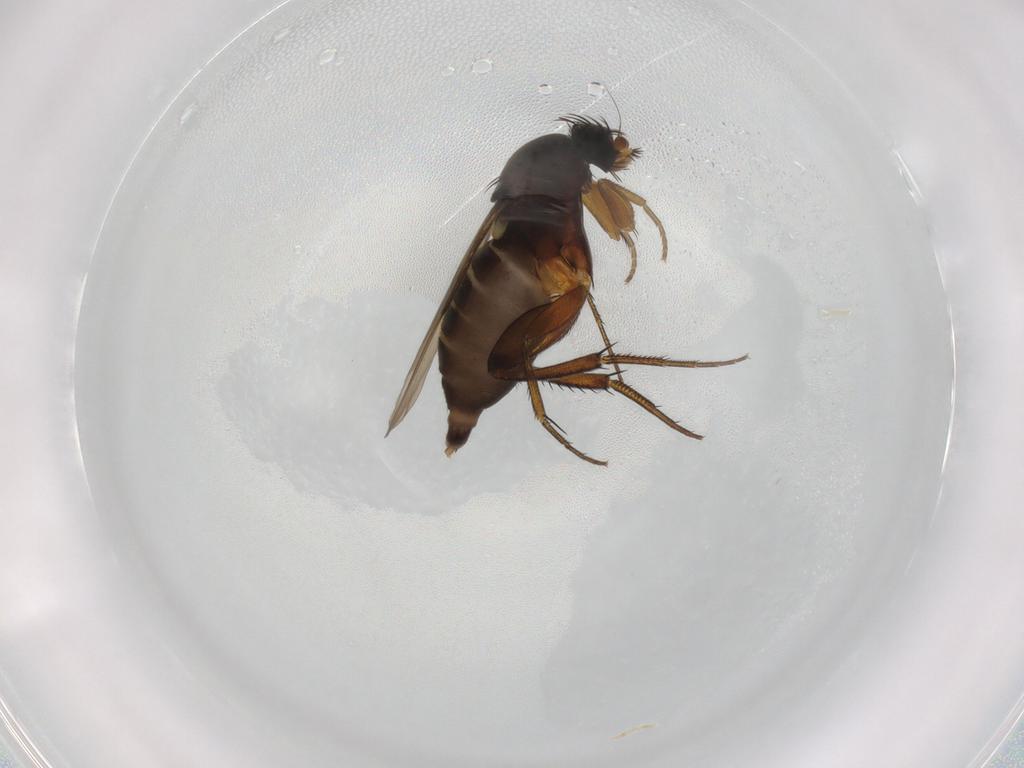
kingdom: Animalia
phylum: Arthropoda
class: Insecta
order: Diptera
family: Phoridae
